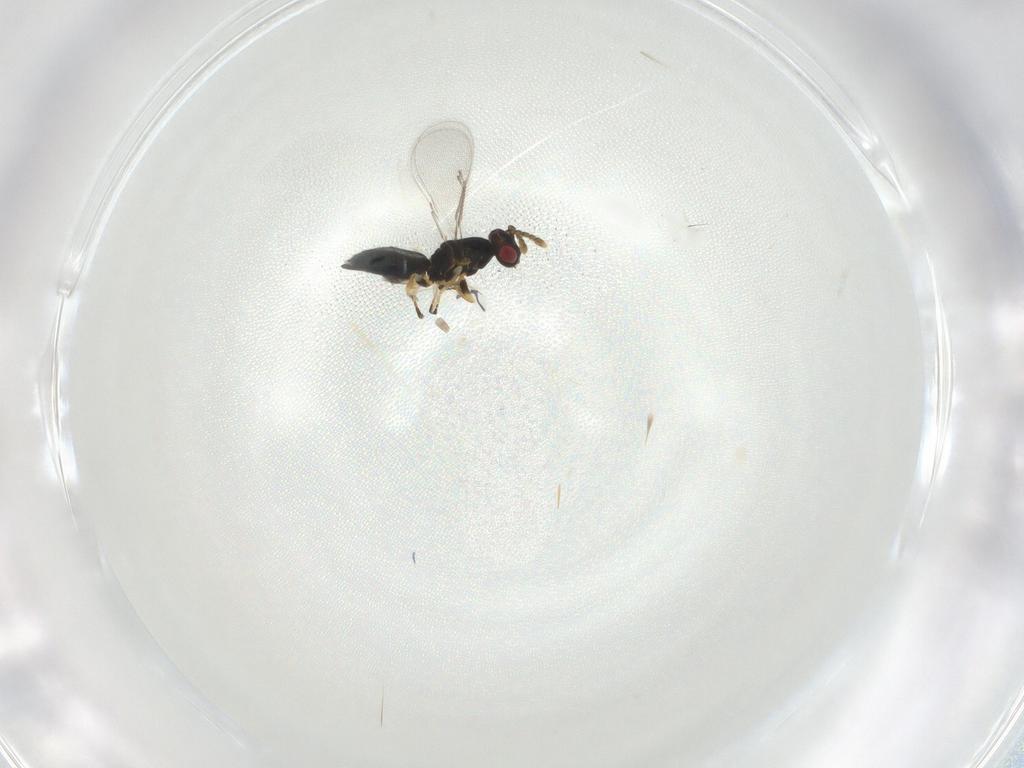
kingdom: Animalia
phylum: Arthropoda
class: Insecta
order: Hymenoptera
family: Eulophidae
